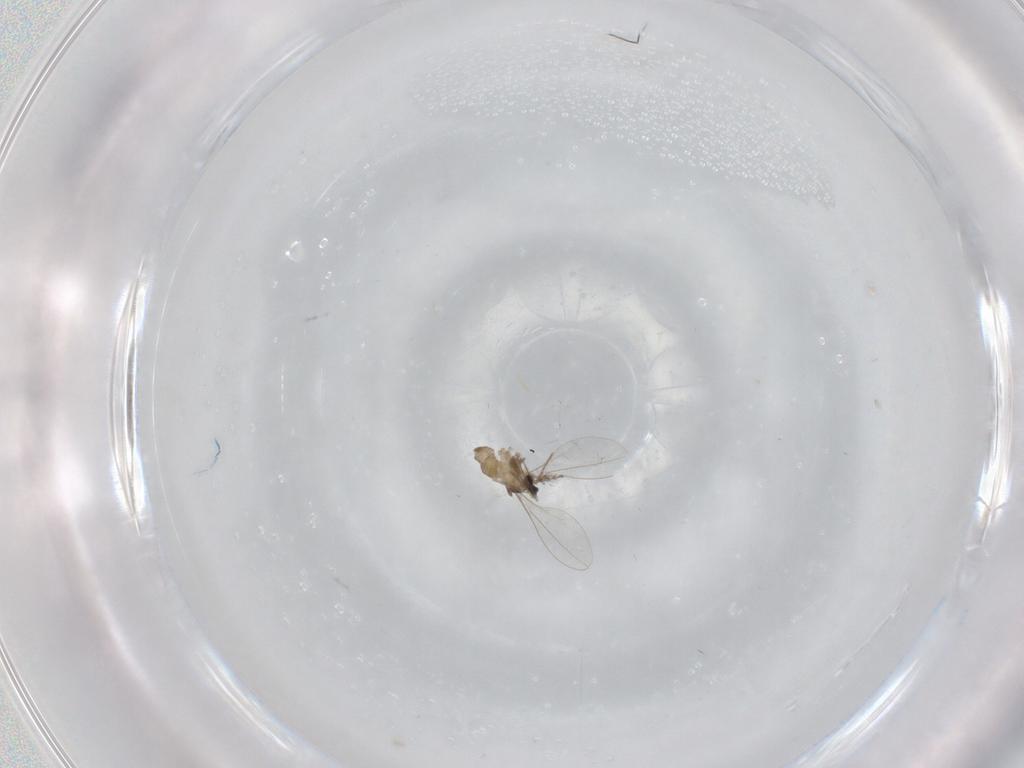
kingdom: Animalia
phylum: Arthropoda
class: Insecta
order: Diptera
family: Cecidomyiidae
